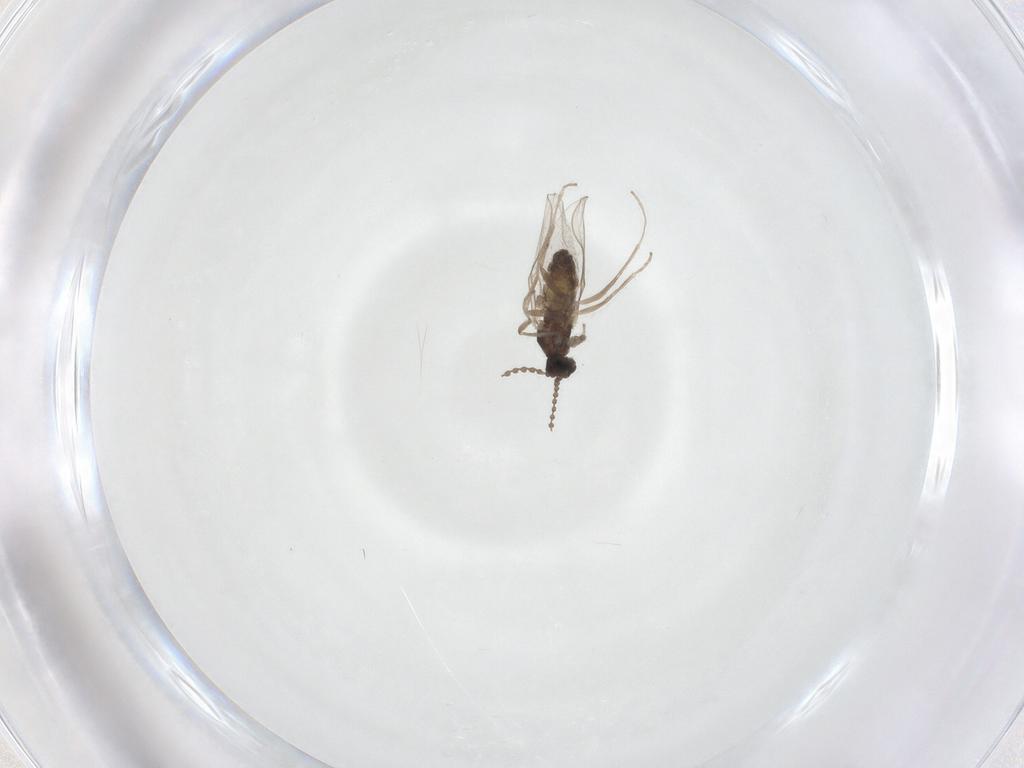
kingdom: Animalia
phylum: Arthropoda
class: Insecta
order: Diptera
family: Cecidomyiidae
